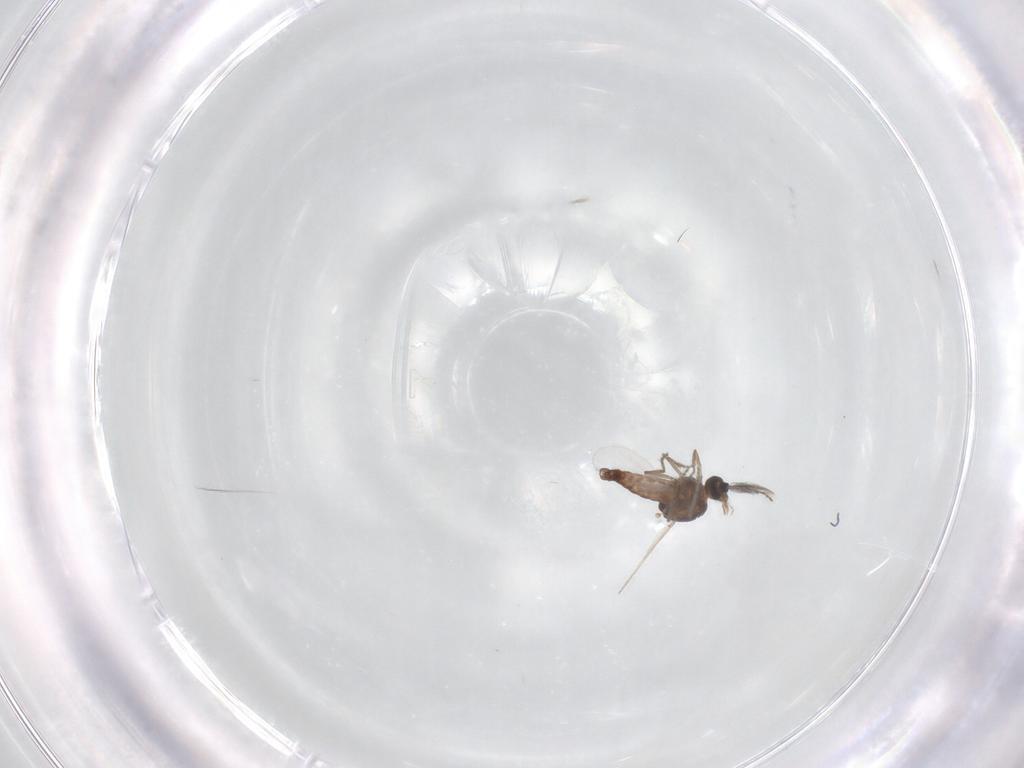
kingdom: Animalia
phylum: Arthropoda
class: Insecta
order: Diptera
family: Ceratopogonidae
